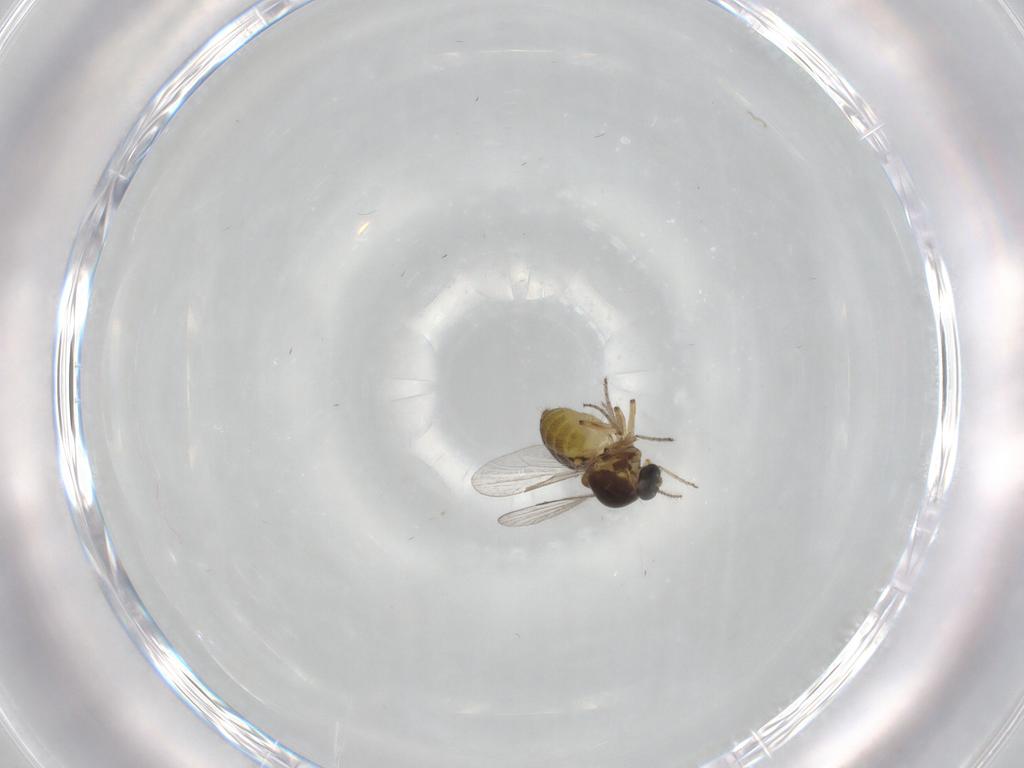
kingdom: Animalia
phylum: Arthropoda
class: Insecta
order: Diptera
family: Ceratopogonidae
